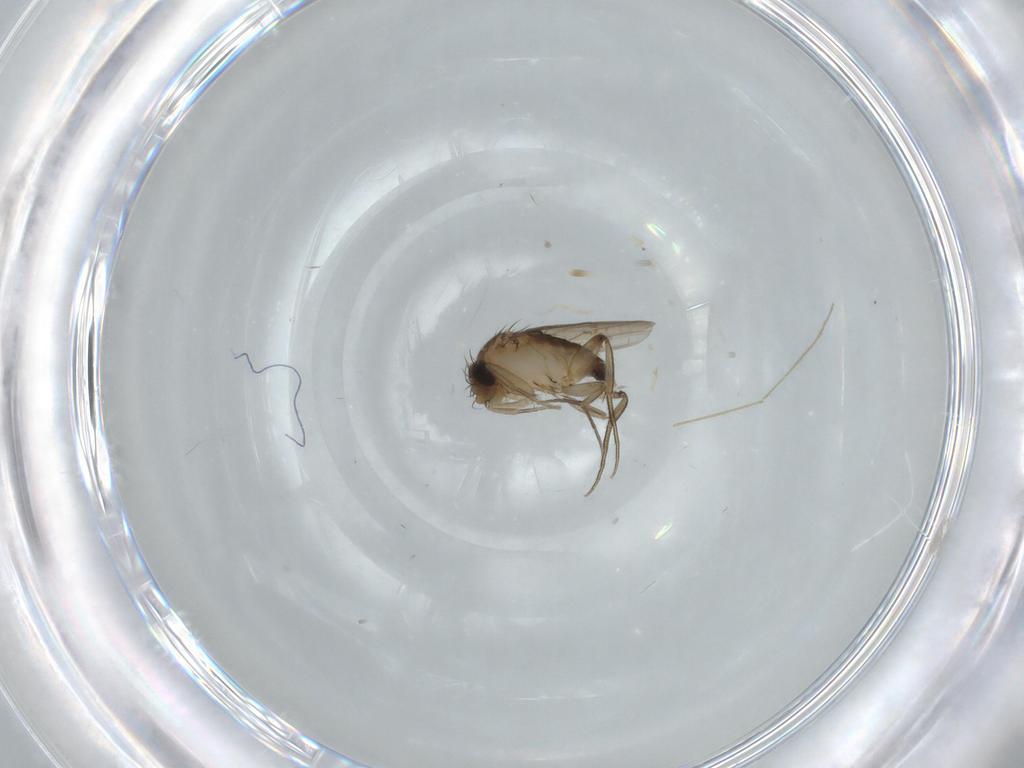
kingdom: Animalia
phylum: Arthropoda
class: Insecta
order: Diptera
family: Phoridae
